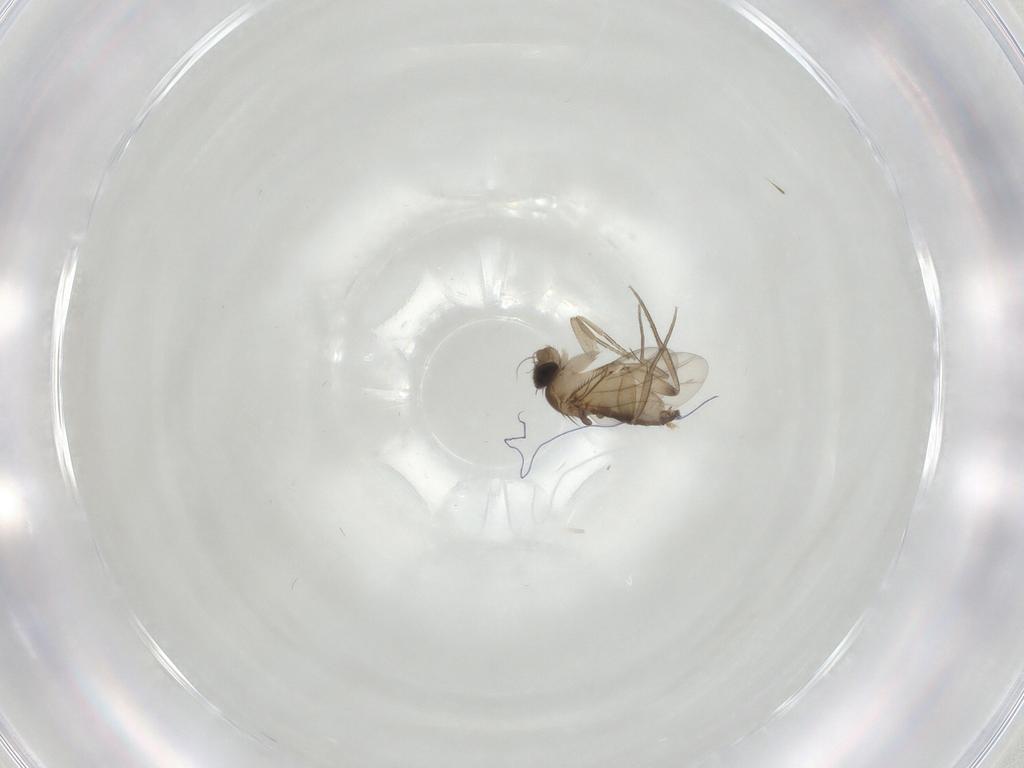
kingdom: Animalia
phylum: Arthropoda
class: Insecta
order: Diptera
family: Phoridae
